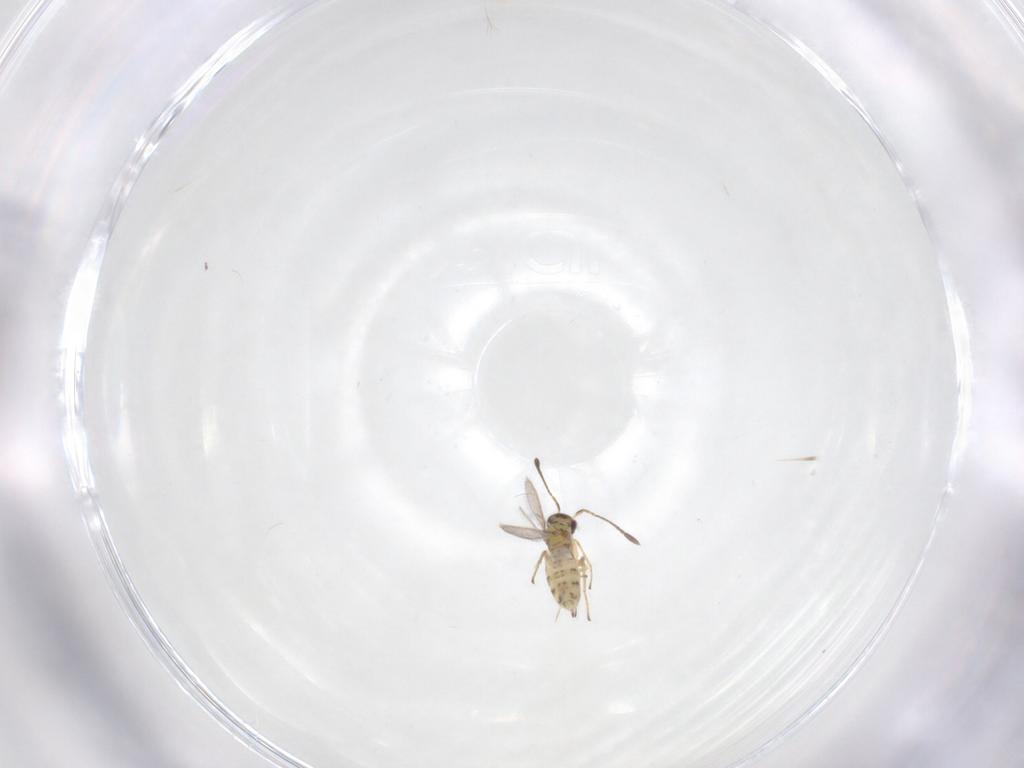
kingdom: Animalia
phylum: Arthropoda
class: Insecta
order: Hymenoptera
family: Mymaridae
